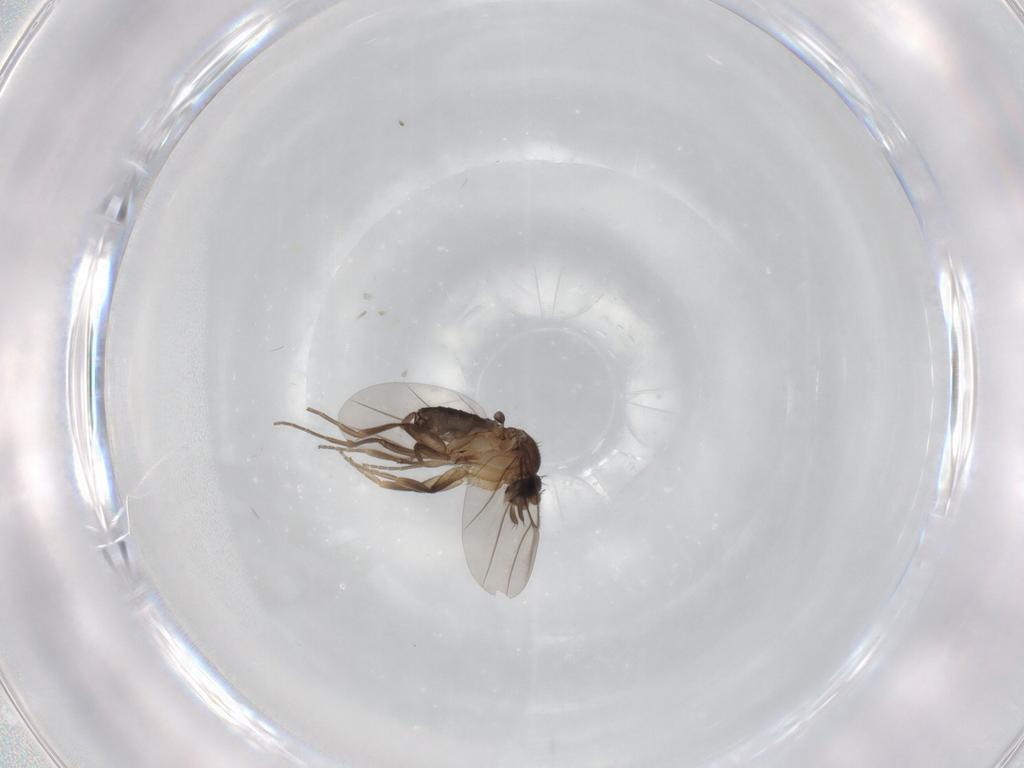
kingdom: Animalia
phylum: Arthropoda
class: Insecta
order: Diptera
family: Phoridae
